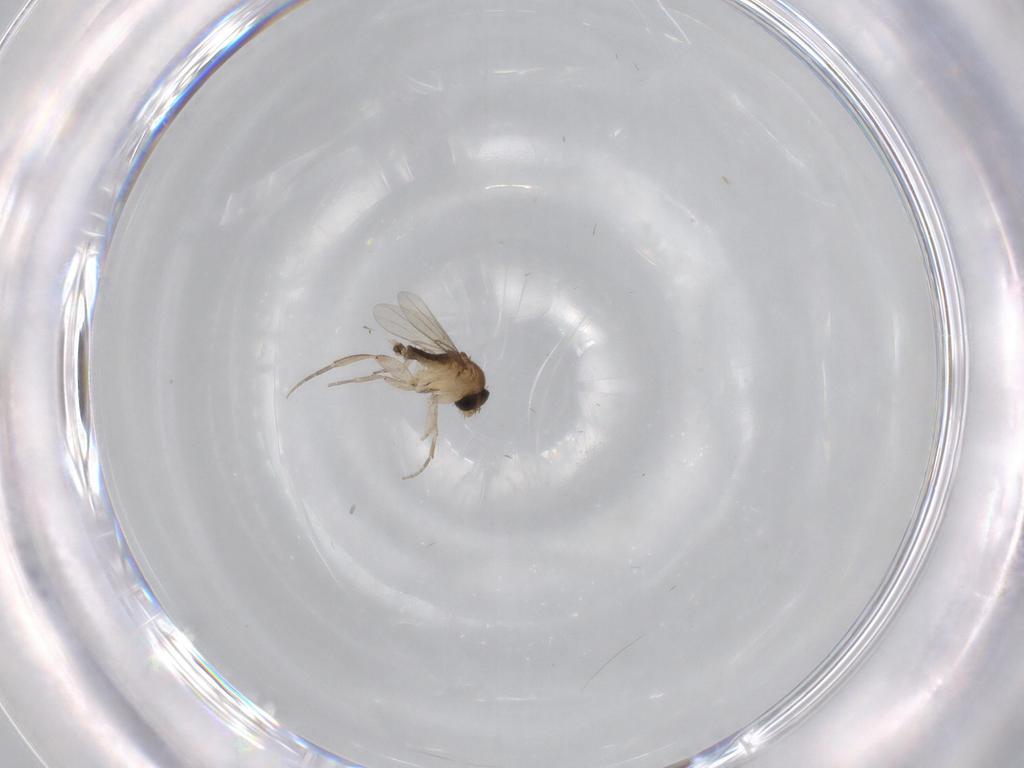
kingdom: Animalia
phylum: Arthropoda
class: Insecta
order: Diptera
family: Phoridae
